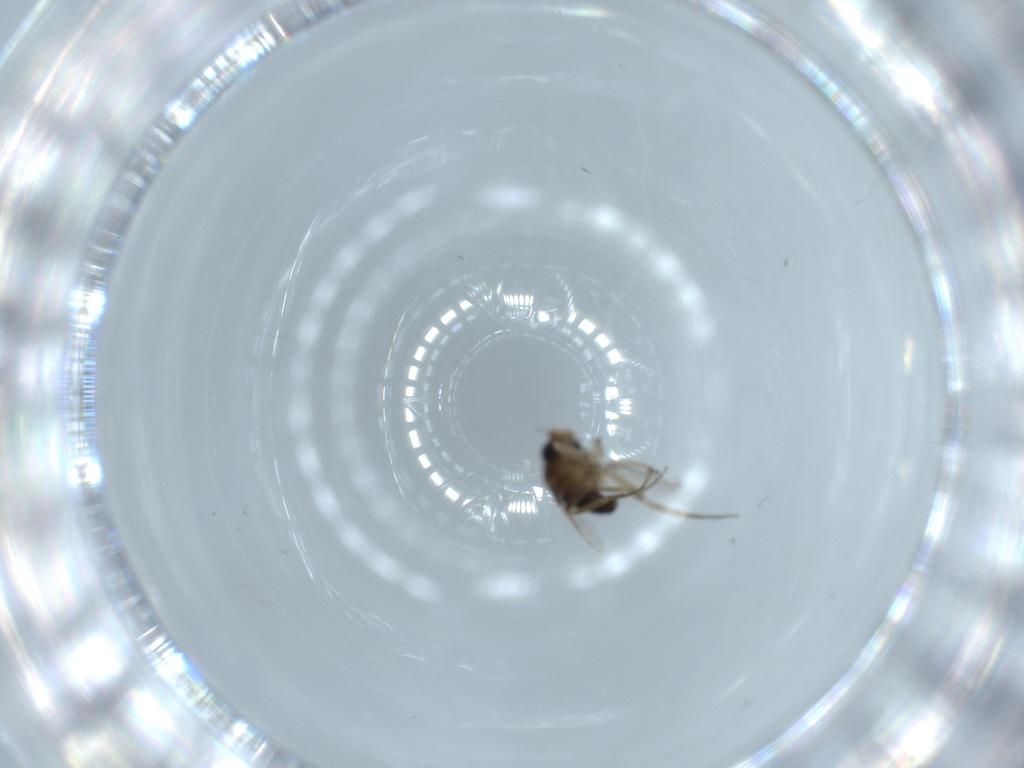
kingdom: Animalia
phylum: Arthropoda
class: Insecta
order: Diptera
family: Phoridae
